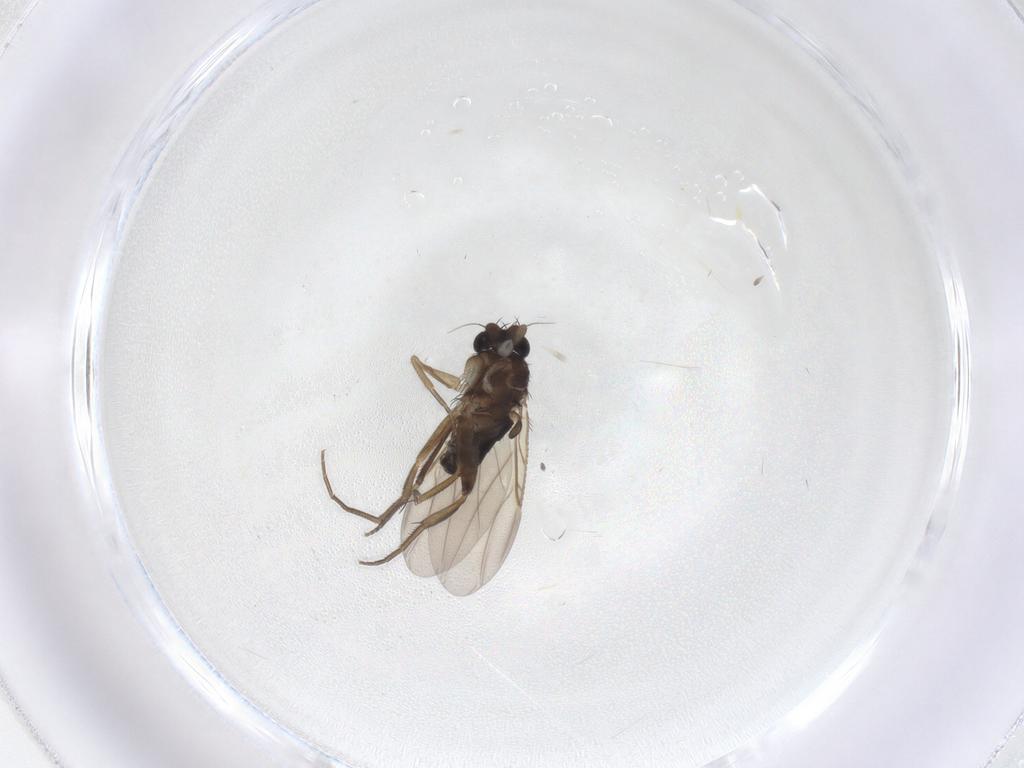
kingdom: Animalia
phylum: Arthropoda
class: Insecta
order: Diptera
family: Phoridae
